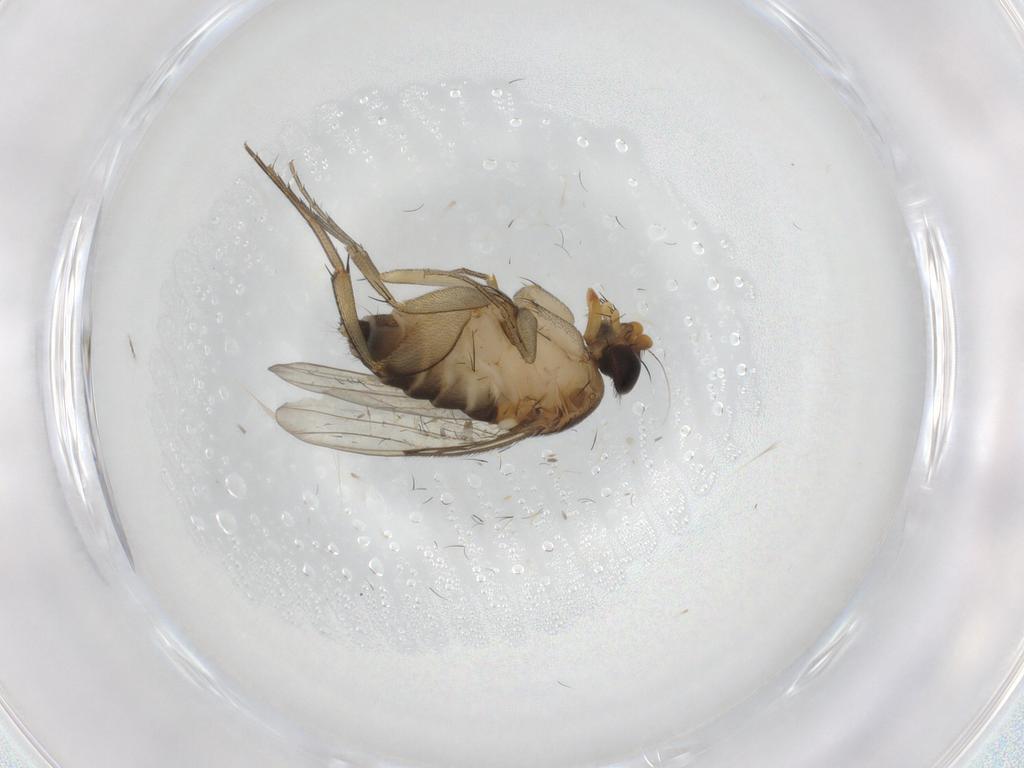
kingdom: Animalia
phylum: Arthropoda
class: Insecta
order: Diptera
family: Phoridae
